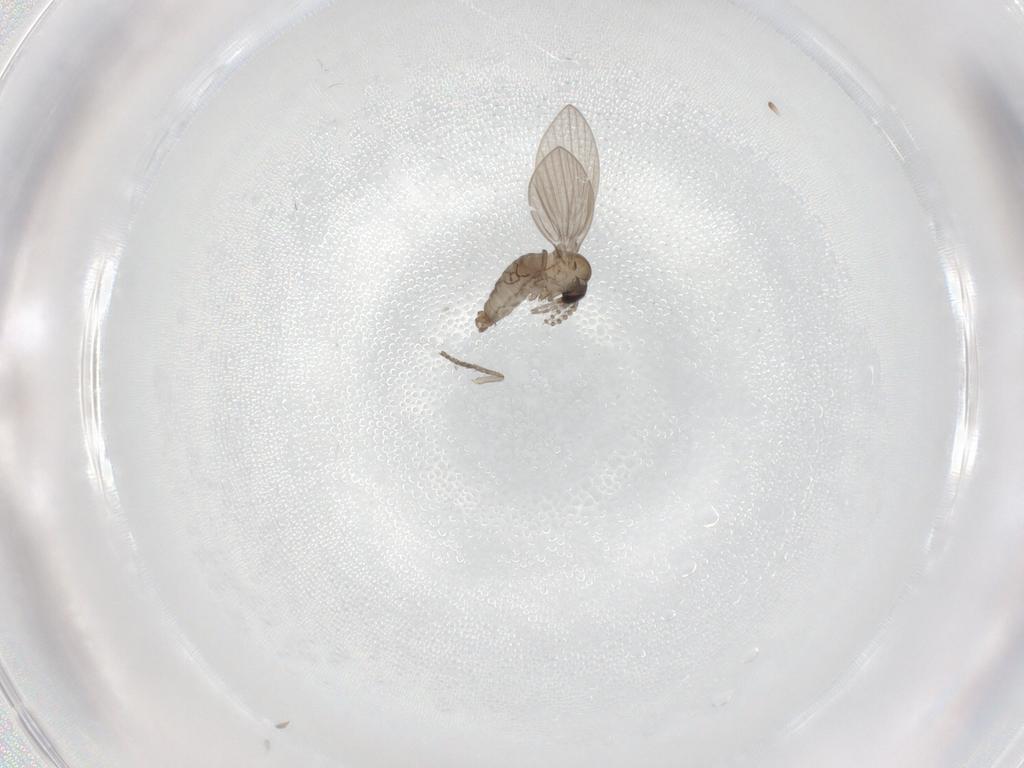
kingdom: Animalia
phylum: Arthropoda
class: Insecta
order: Diptera
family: Psychodidae
